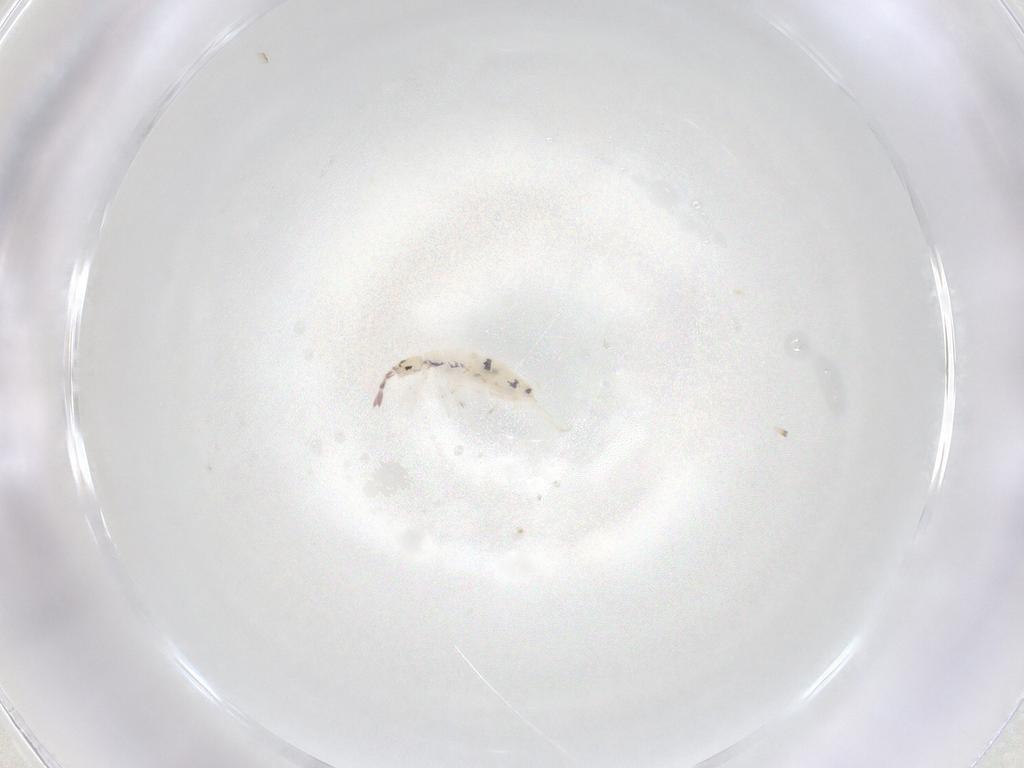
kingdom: Animalia
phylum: Arthropoda
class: Collembola
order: Entomobryomorpha
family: Entomobryidae
